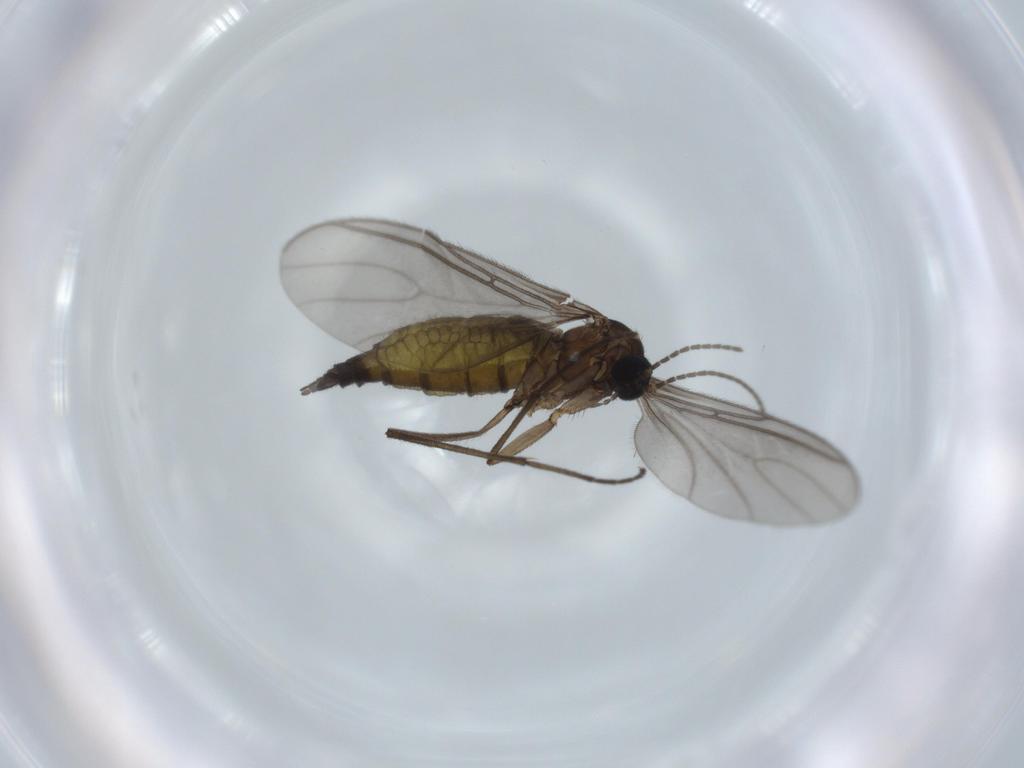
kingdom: Animalia
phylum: Arthropoda
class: Insecta
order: Diptera
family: Sciaridae
